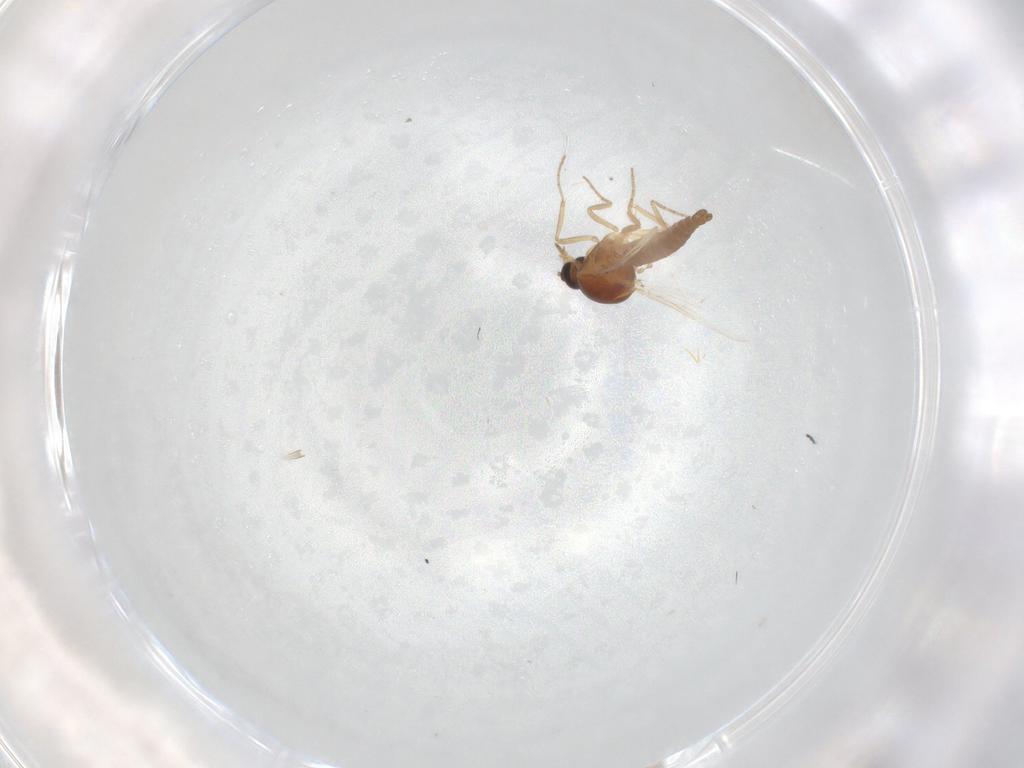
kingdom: Animalia
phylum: Arthropoda
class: Insecta
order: Diptera
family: Ceratopogonidae
